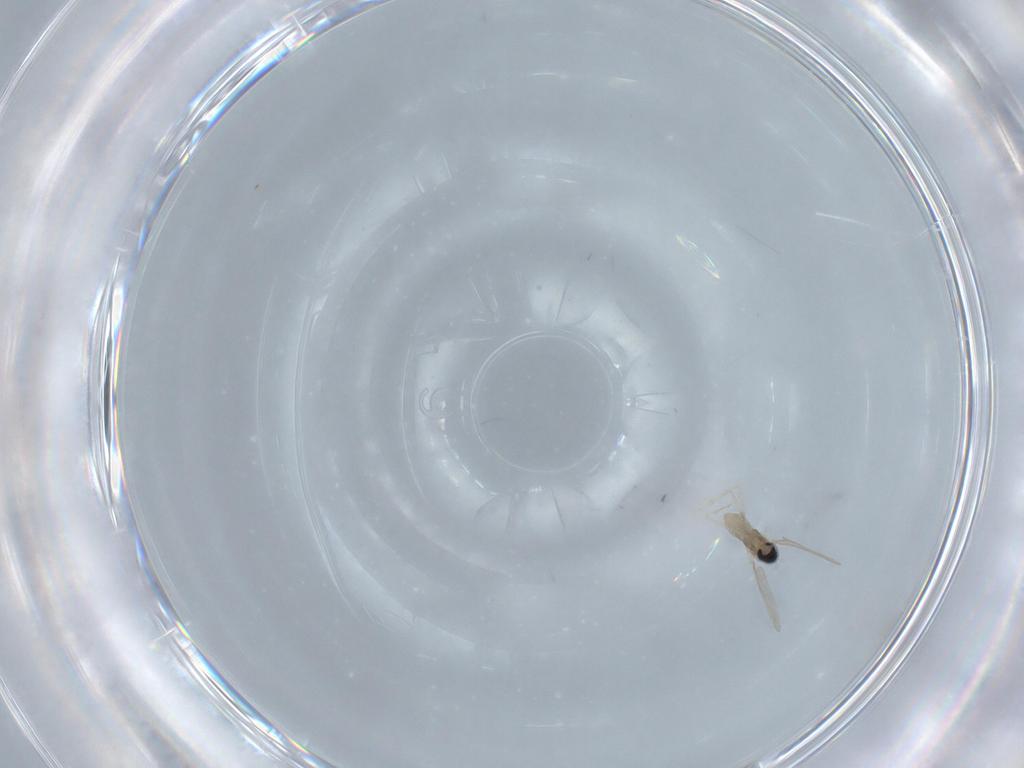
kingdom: Animalia
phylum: Arthropoda
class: Insecta
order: Diptera
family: Cecidomyiidae
